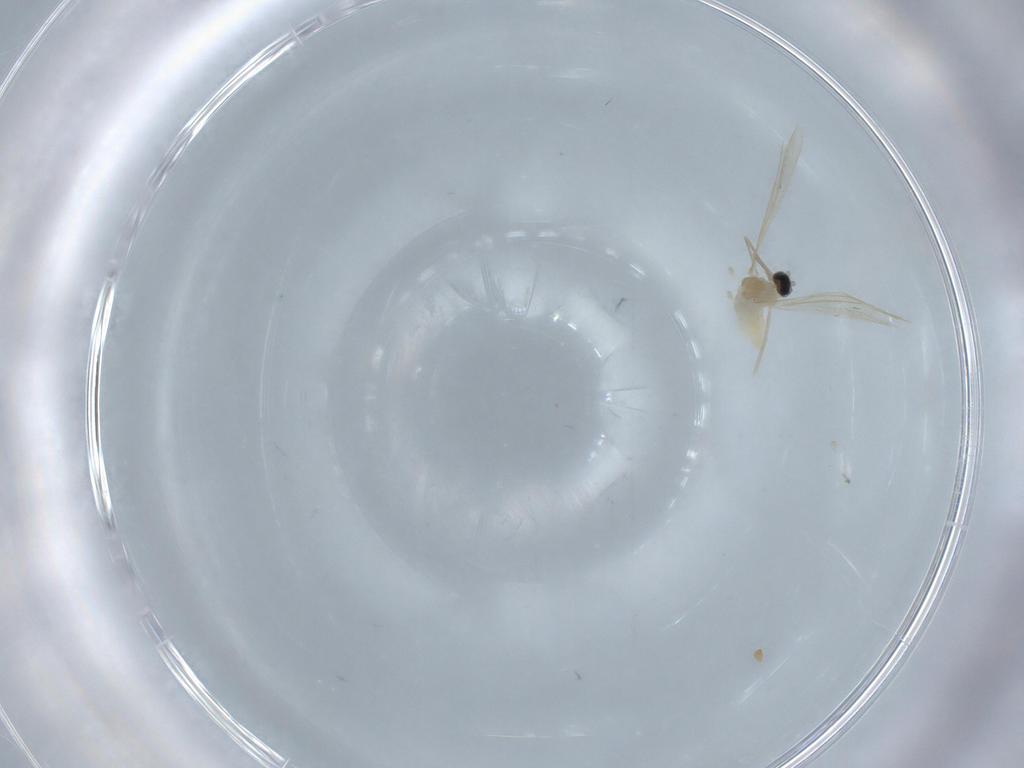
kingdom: Animalia
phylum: Arthropoda
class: Insecta
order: Diptera
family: Cecidomyiidae
